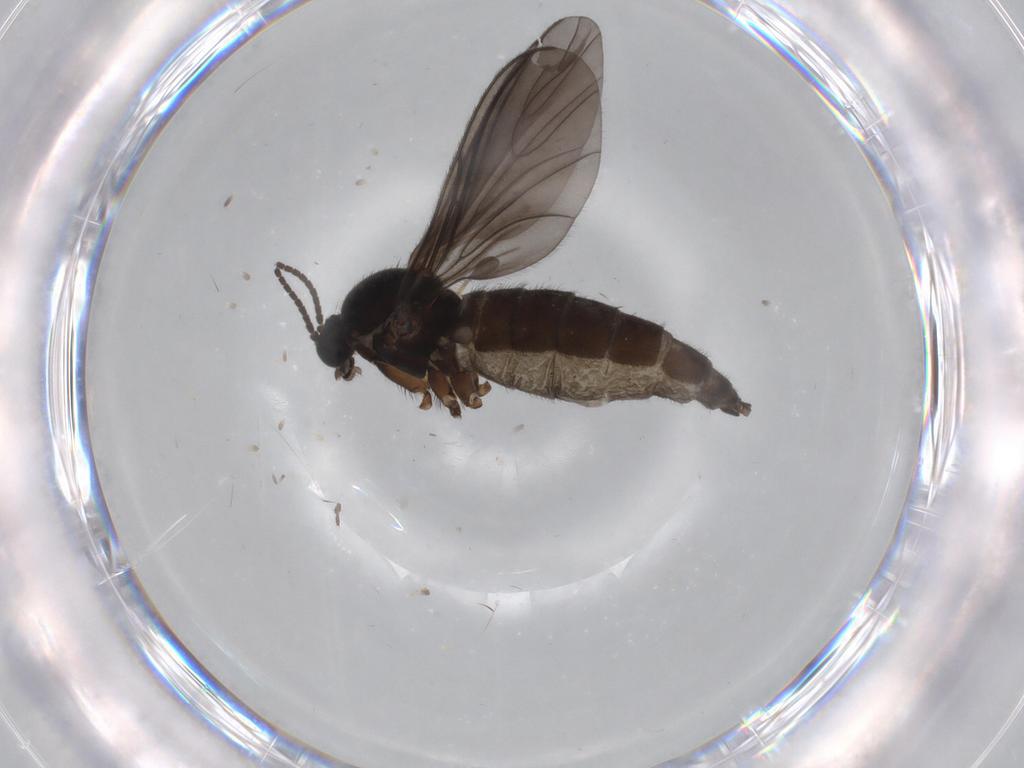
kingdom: Animalia
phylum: Arthropoda
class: Insecta
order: Diptera
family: Sciaridae
